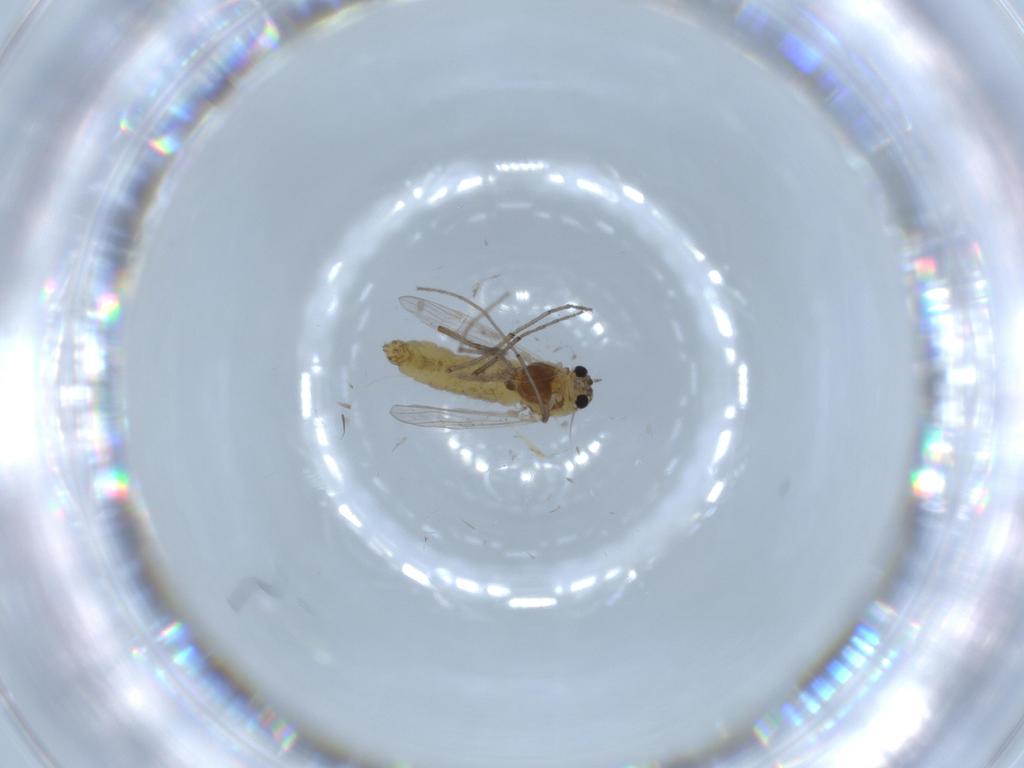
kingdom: Animalia
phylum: Arthropoda
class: Insecta
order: Diptera
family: Chironomidae
